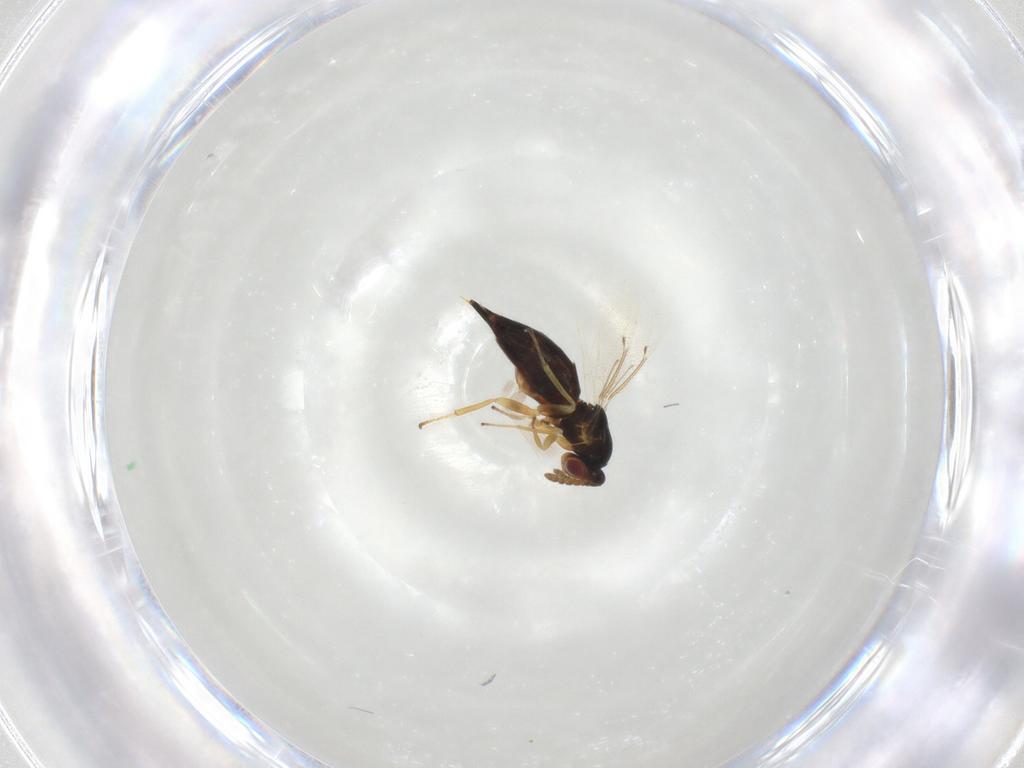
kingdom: Animalia
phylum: Arthropoda
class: Insecta
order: Hymenoptera
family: Eulophidae
